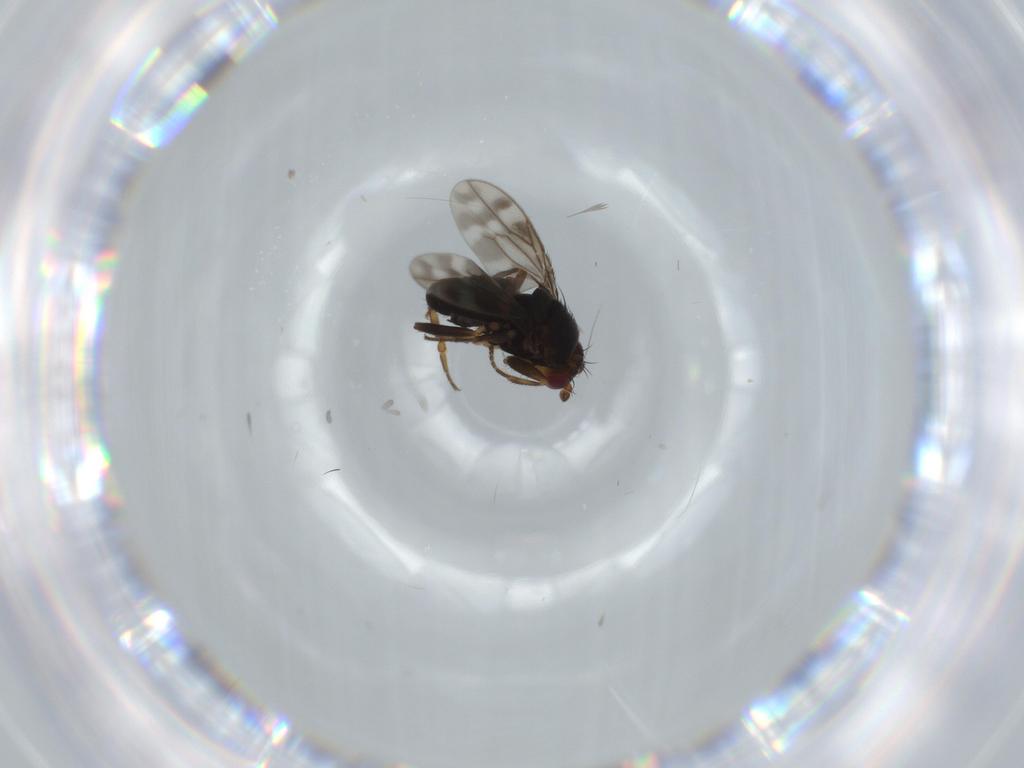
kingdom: Animalia
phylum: Arthropoda
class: Insecta
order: Diptera
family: Sphaeroceridae
